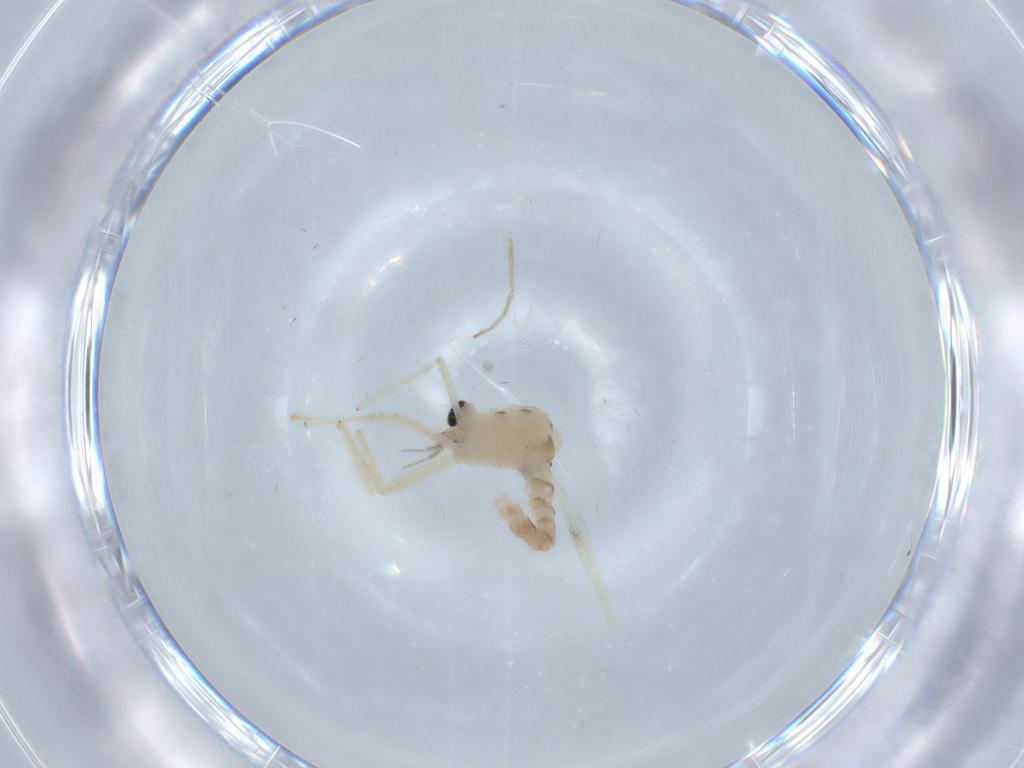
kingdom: Animalia
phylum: Arthropoda
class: Insecta
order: Diptera
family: Chironomidae
